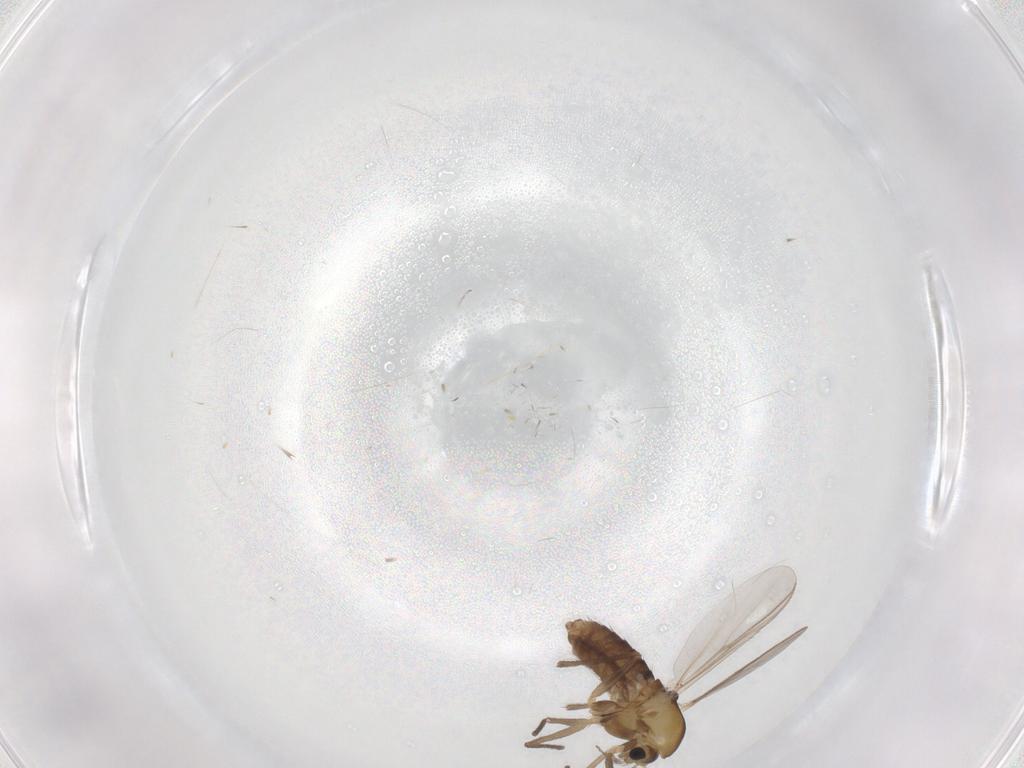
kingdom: Animalia
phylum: Arthropoda
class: Insecta
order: Diptera
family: Chironomidae
